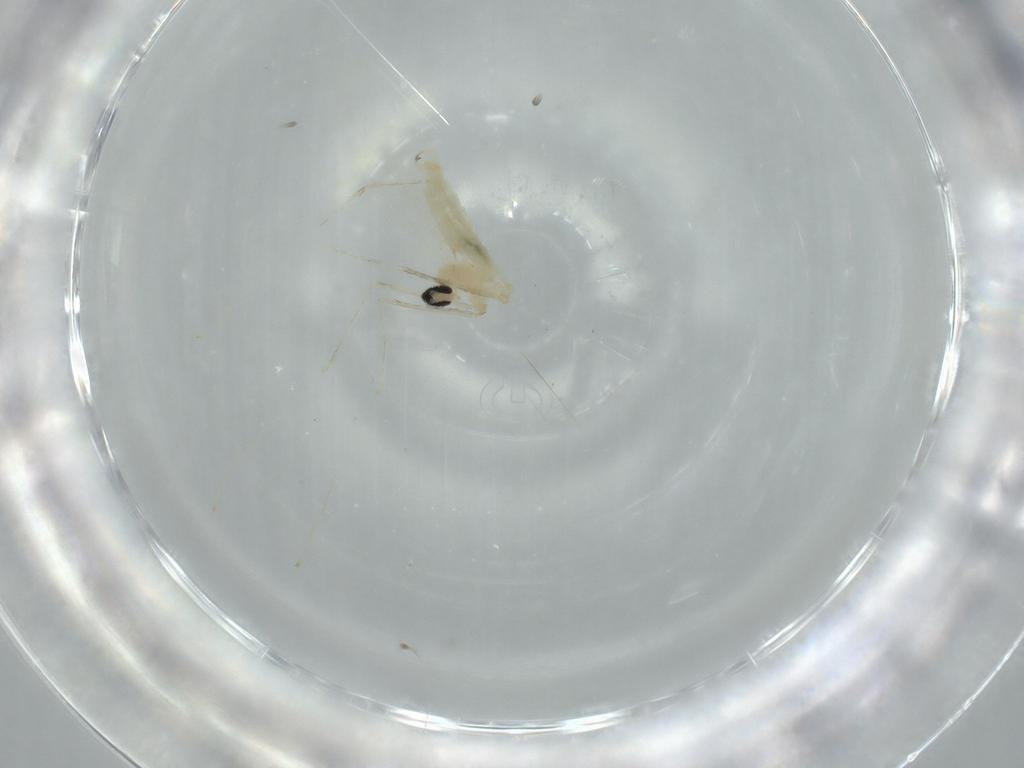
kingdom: Animalia
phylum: Arthropoda
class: Insecta
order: Diptera
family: Cecidomyiidae
